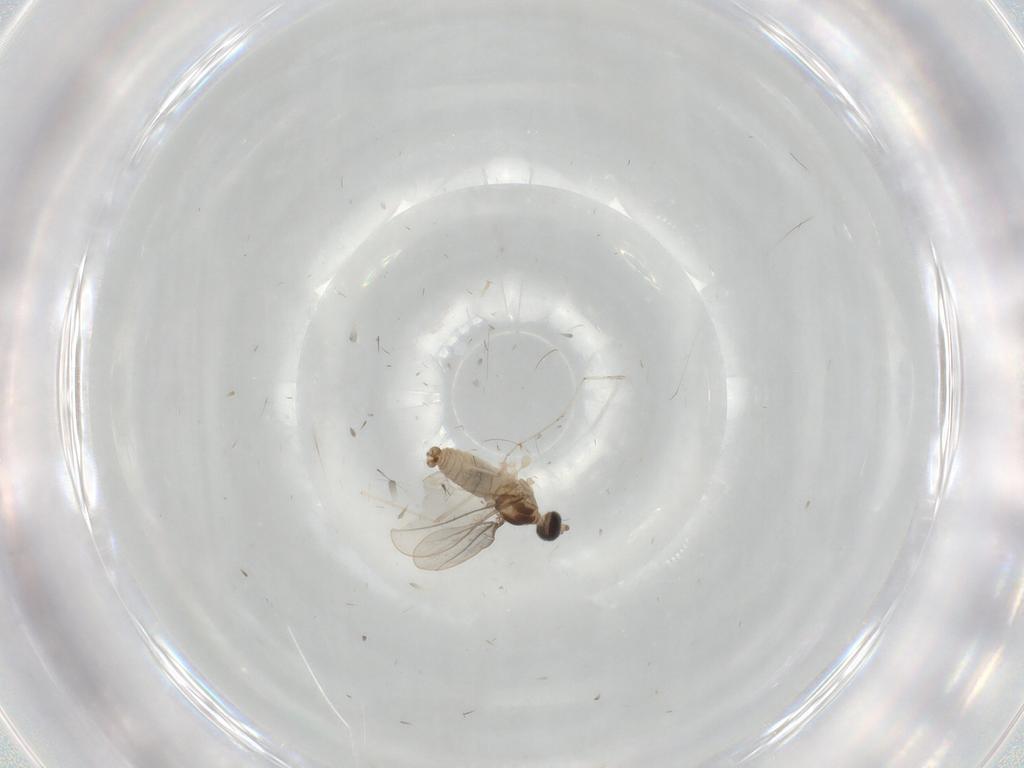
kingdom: Animalia
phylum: Arthropoda
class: Insecta
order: Diptera
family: Cecidomyiidae
